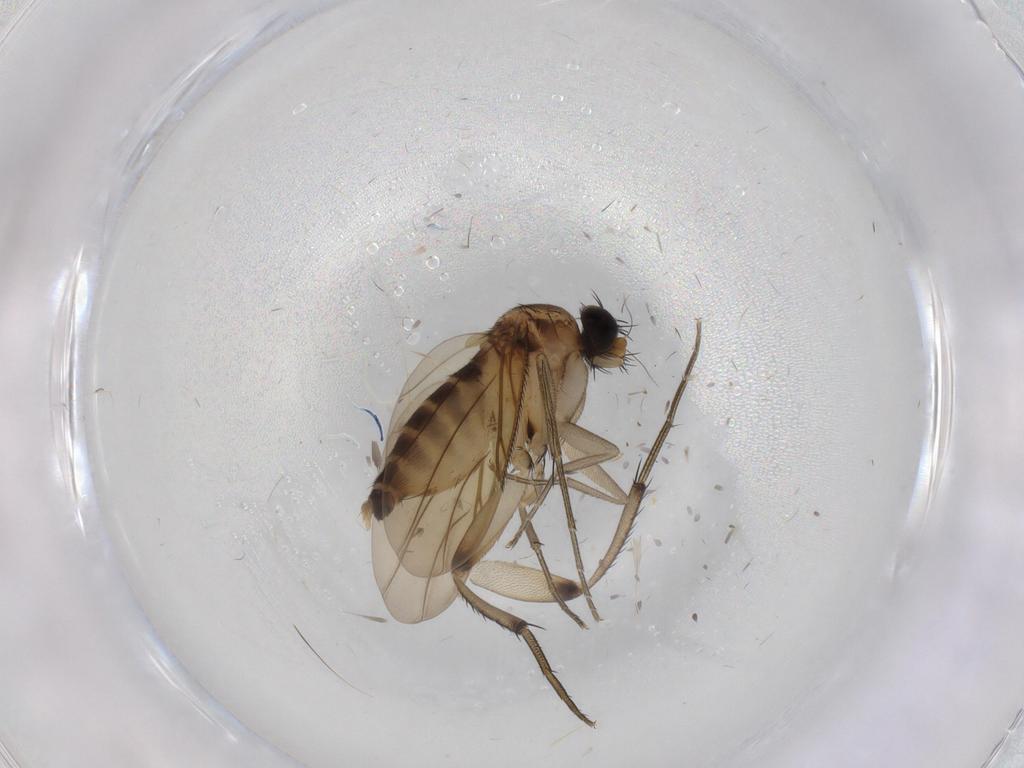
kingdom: Animalia
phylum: Arthropoda
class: Insecta
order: Diptera
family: Phoridae
